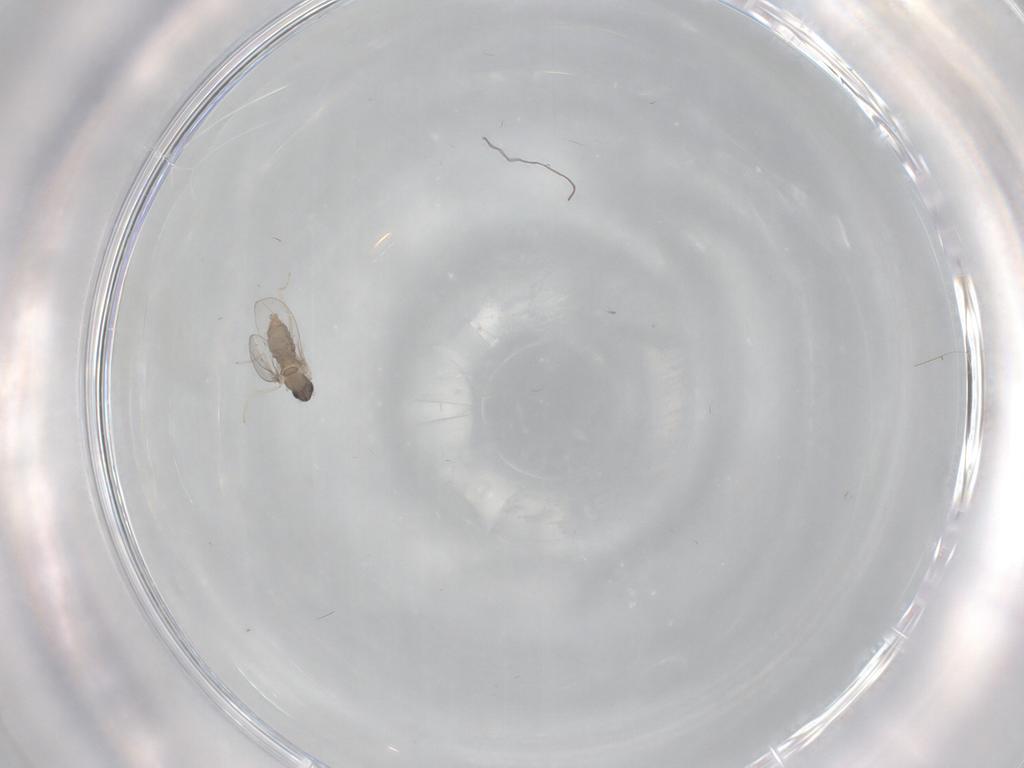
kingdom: Animalia
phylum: Arthropoda
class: Insecta
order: Diptera
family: Cecidomyiidae
